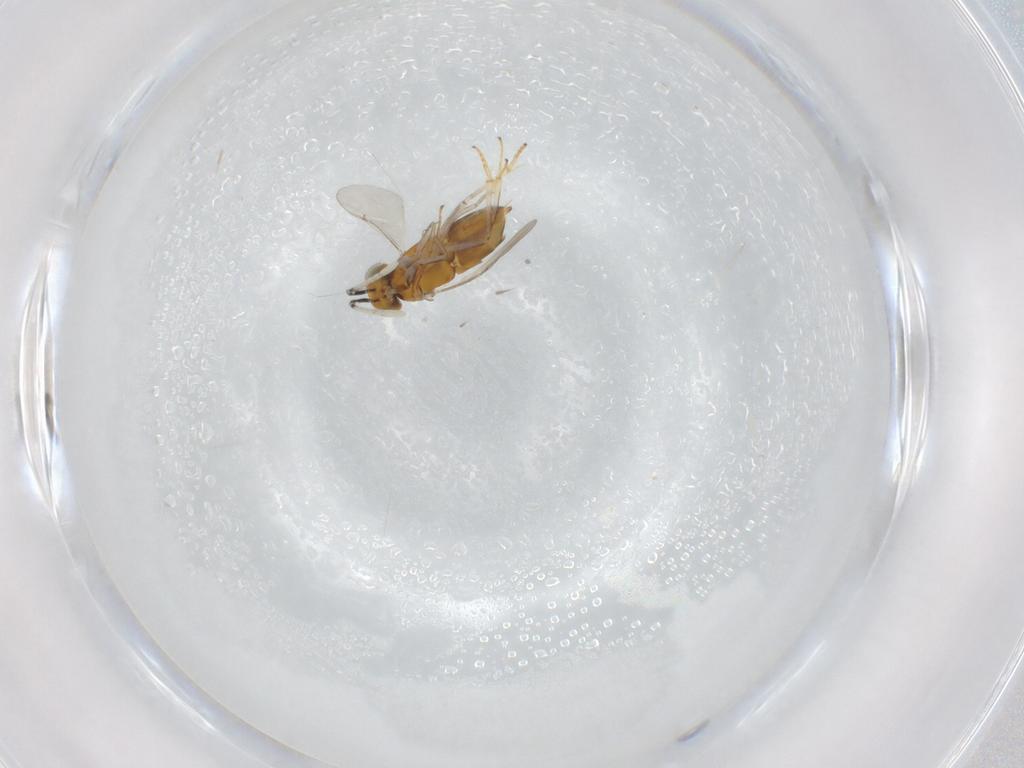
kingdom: Animalia
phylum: Arthropoda
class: Insecta
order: Hymenoptera
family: Encyrtidae
